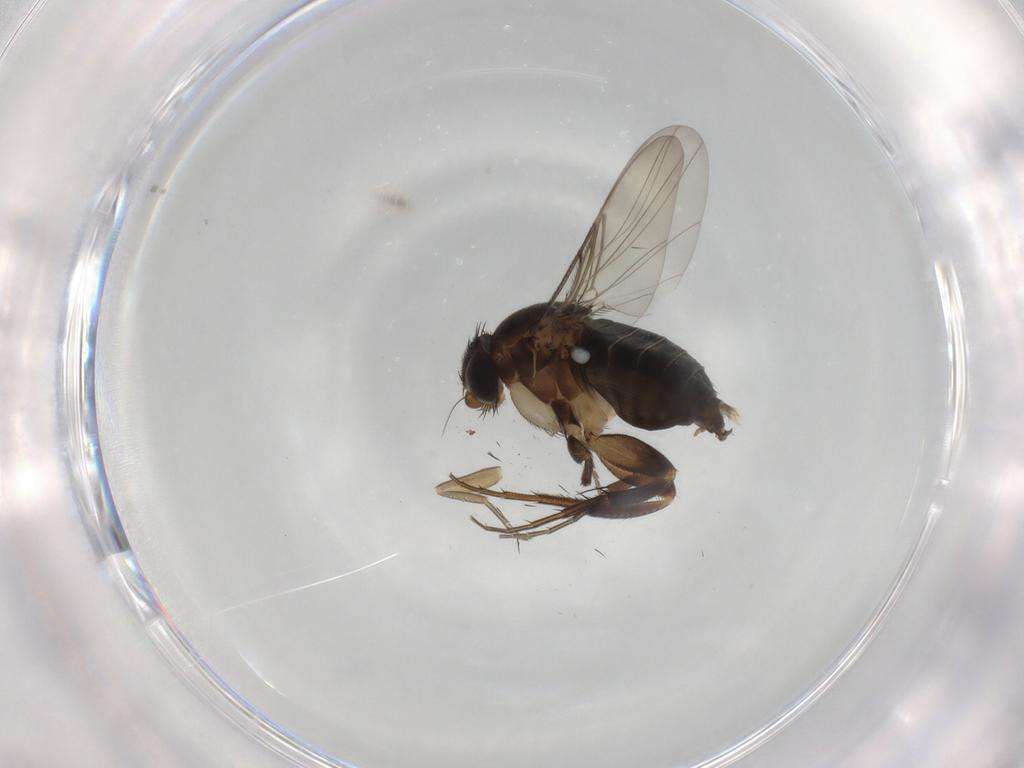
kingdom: Animalia
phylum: Arthropoda
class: Insecta
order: Diptera
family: Phoridae
